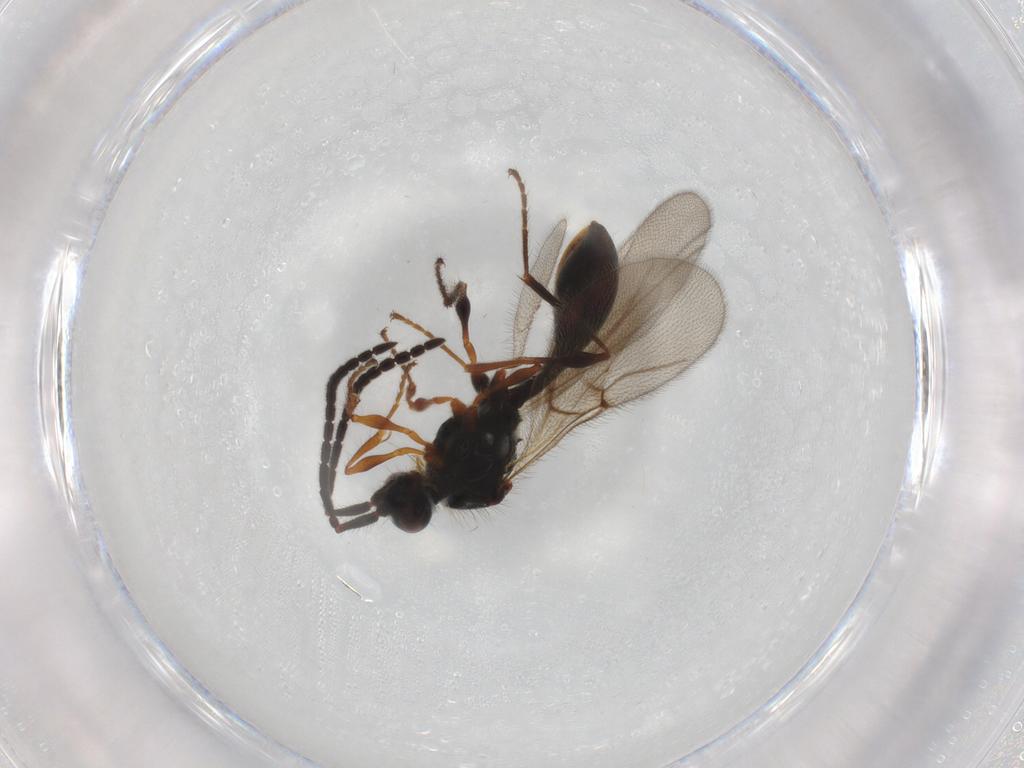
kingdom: Animalia
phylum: Arthropoda
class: Insecta
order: Hymenoptera
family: Diapriidae
